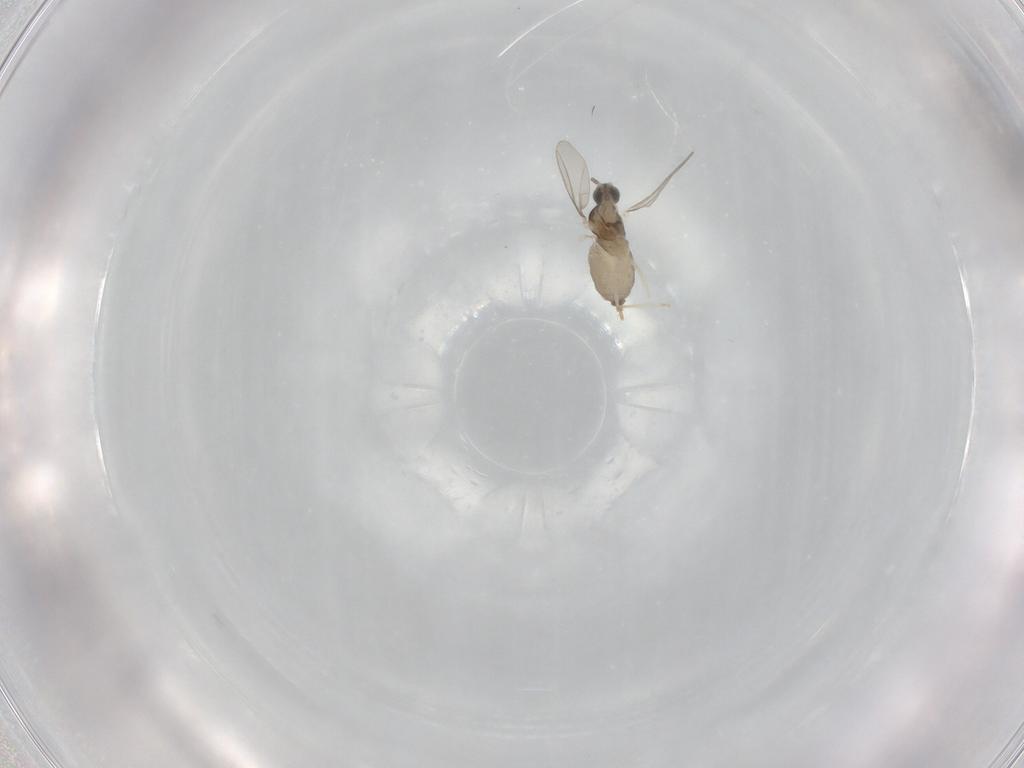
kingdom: Animalia
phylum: Arthropoda
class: Insecta
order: Diptera
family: Cecidomyiidae
